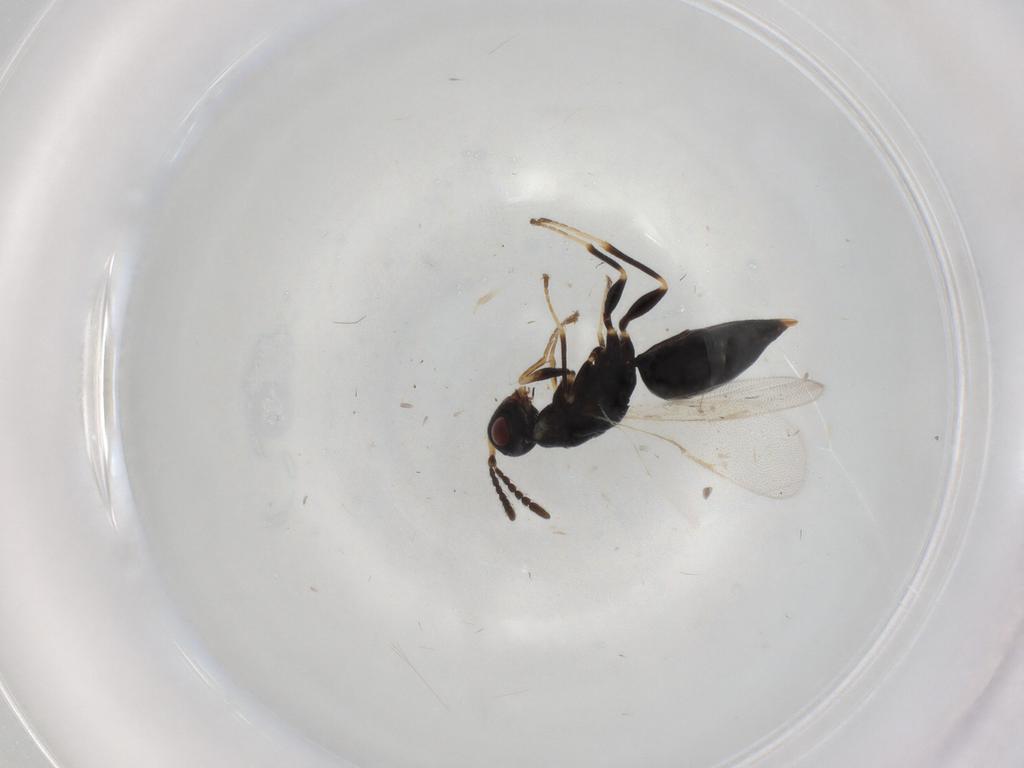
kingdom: Animalia
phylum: Arthropoda
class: Insecta
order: Hymenoptera
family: Eurytomidae
